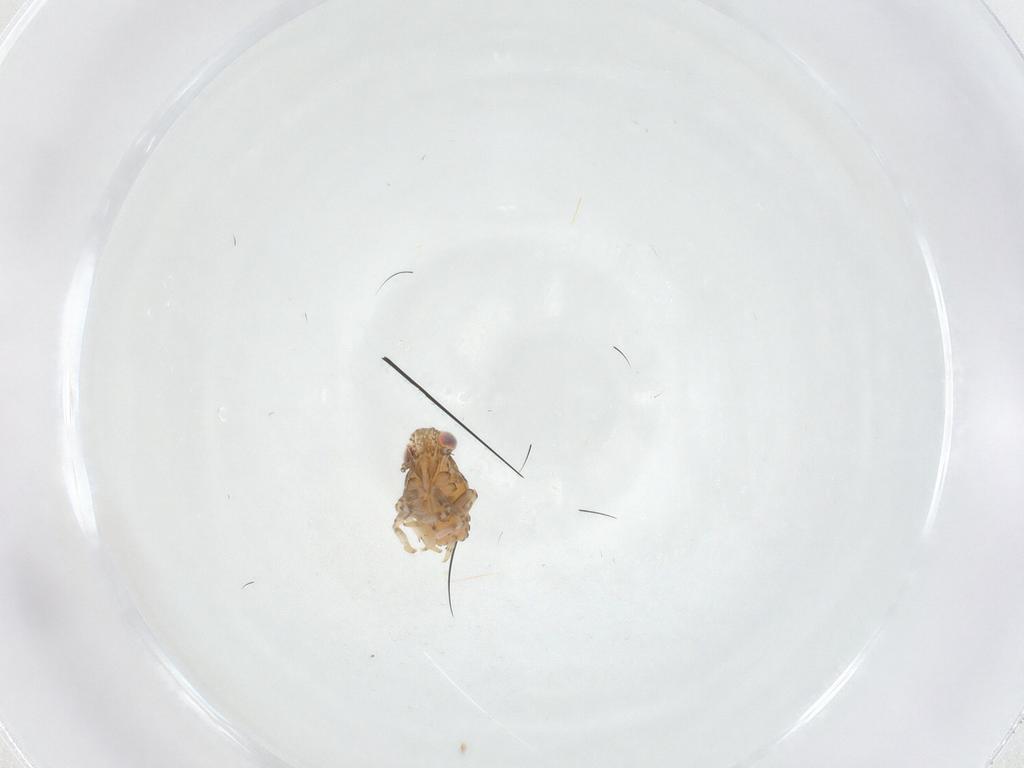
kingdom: Animalia
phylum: Arthropoda
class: Insecta
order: Hemiptera
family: Issidae
